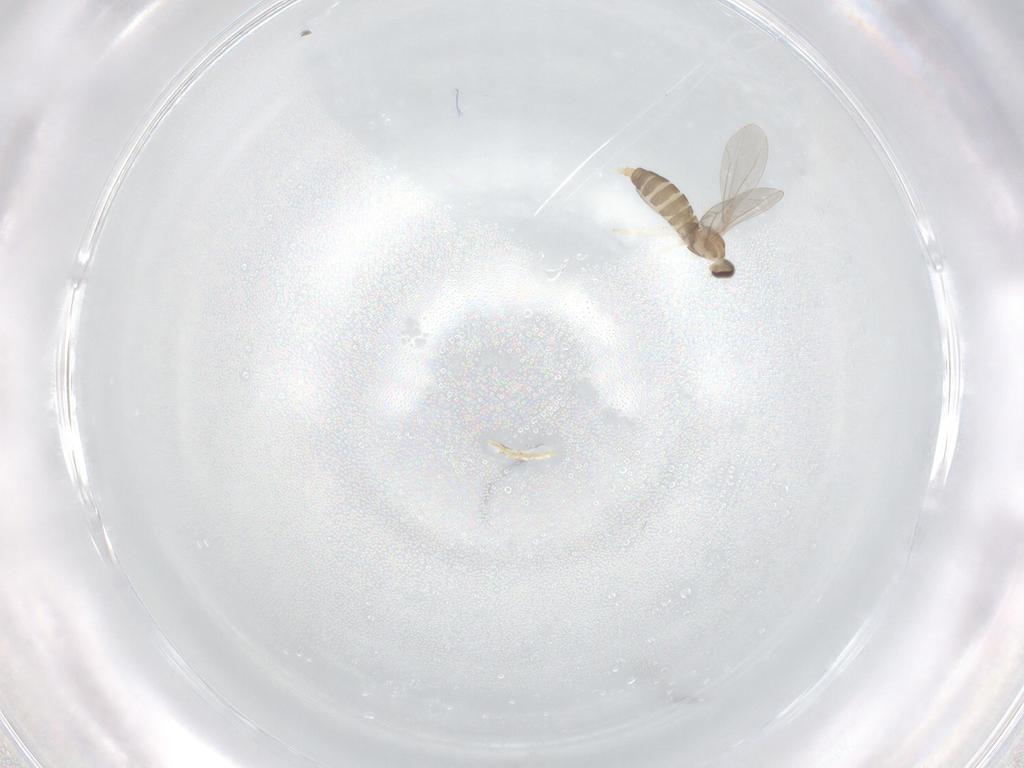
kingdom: Animalia
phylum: Arthropoda
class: Insecta
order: Diptera
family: Cecidomyiidae
